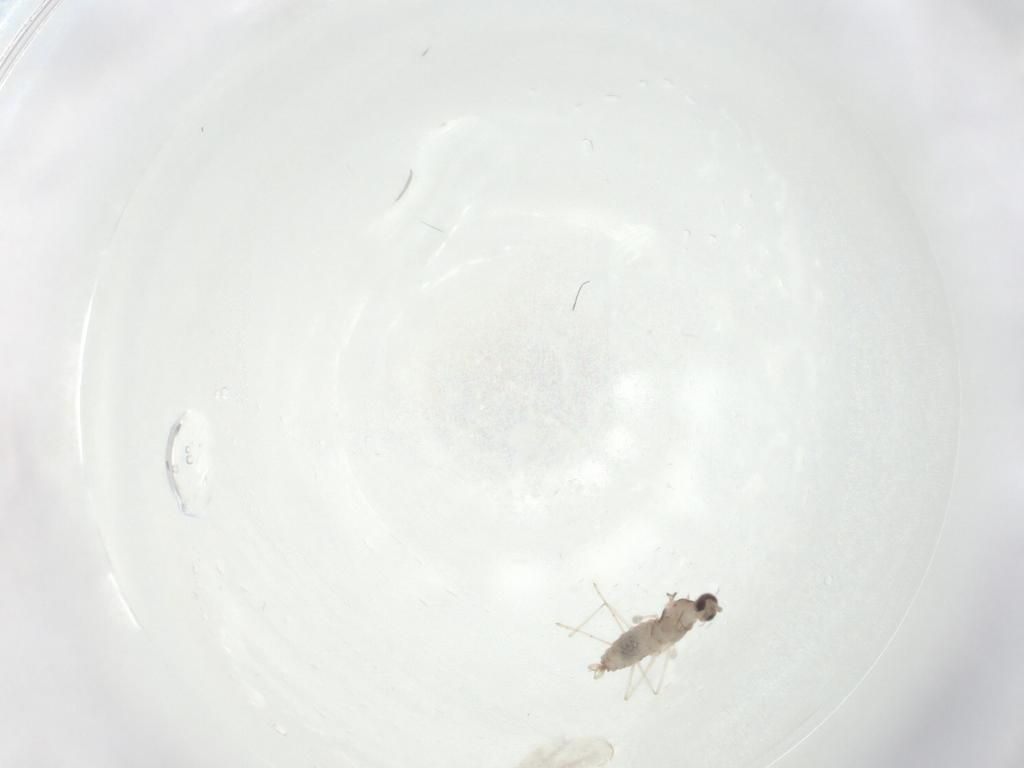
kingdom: Animalia
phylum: Arthropoda
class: Insecta
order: Diptera
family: Cecidomyiidae
